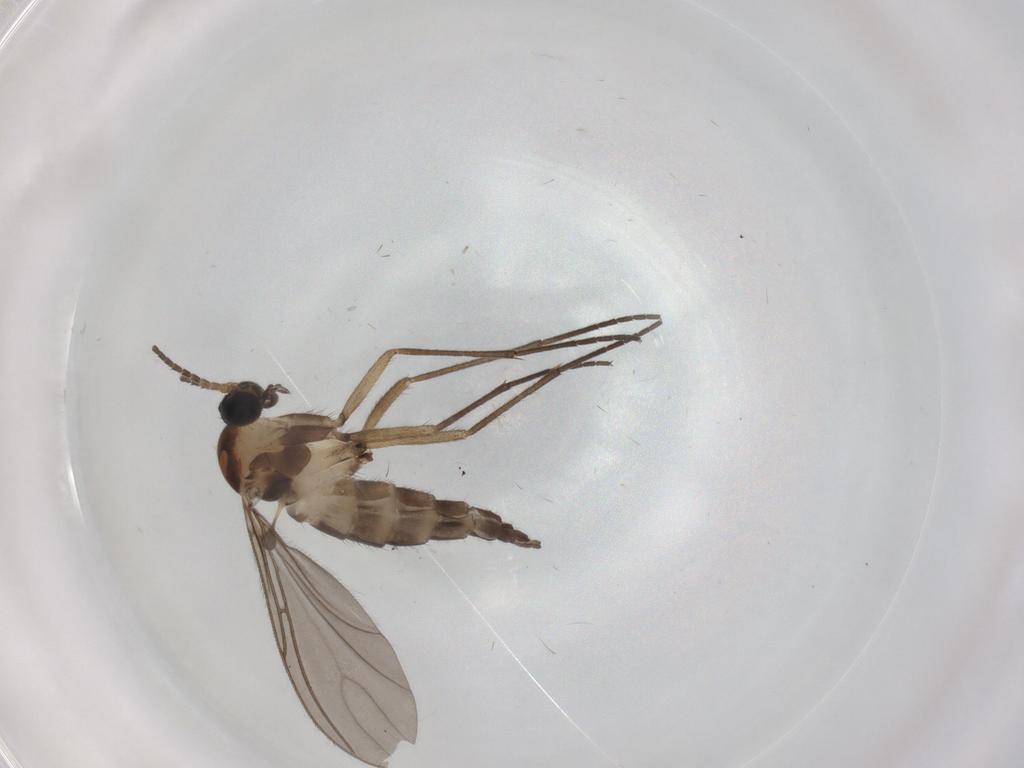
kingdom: Animalia
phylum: Arthropoda
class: Insecta
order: Diptera
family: Sciaridae
